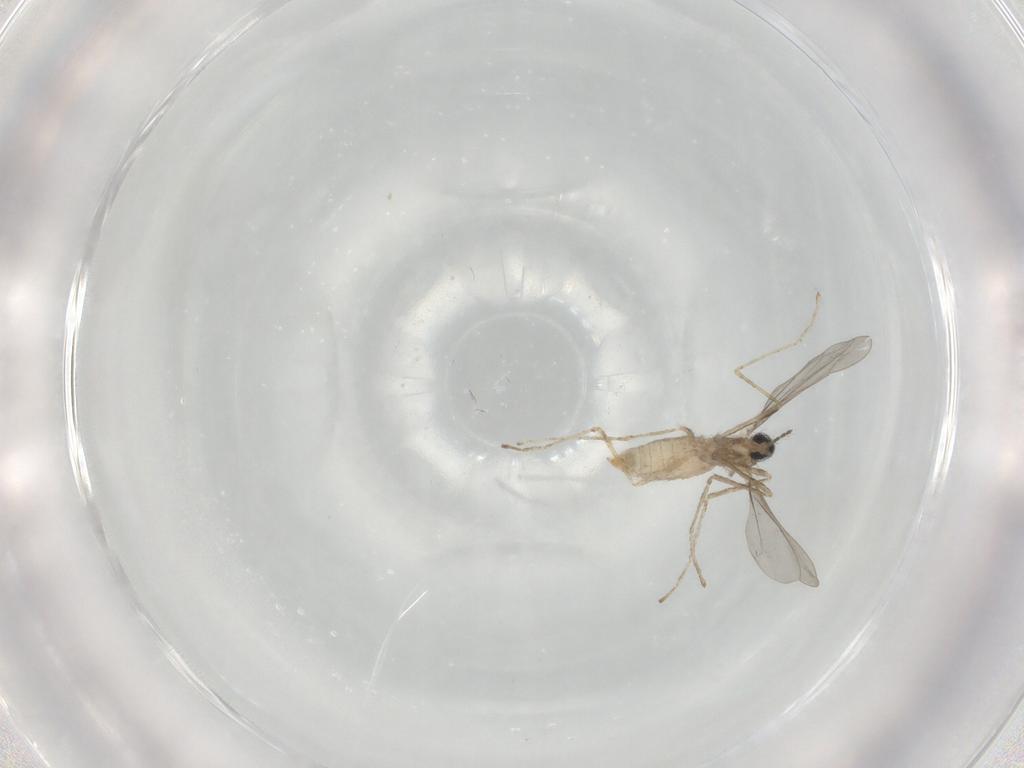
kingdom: Animalia
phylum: Arthropoda
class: Insecta
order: Diptera
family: Cecidomyiidae
